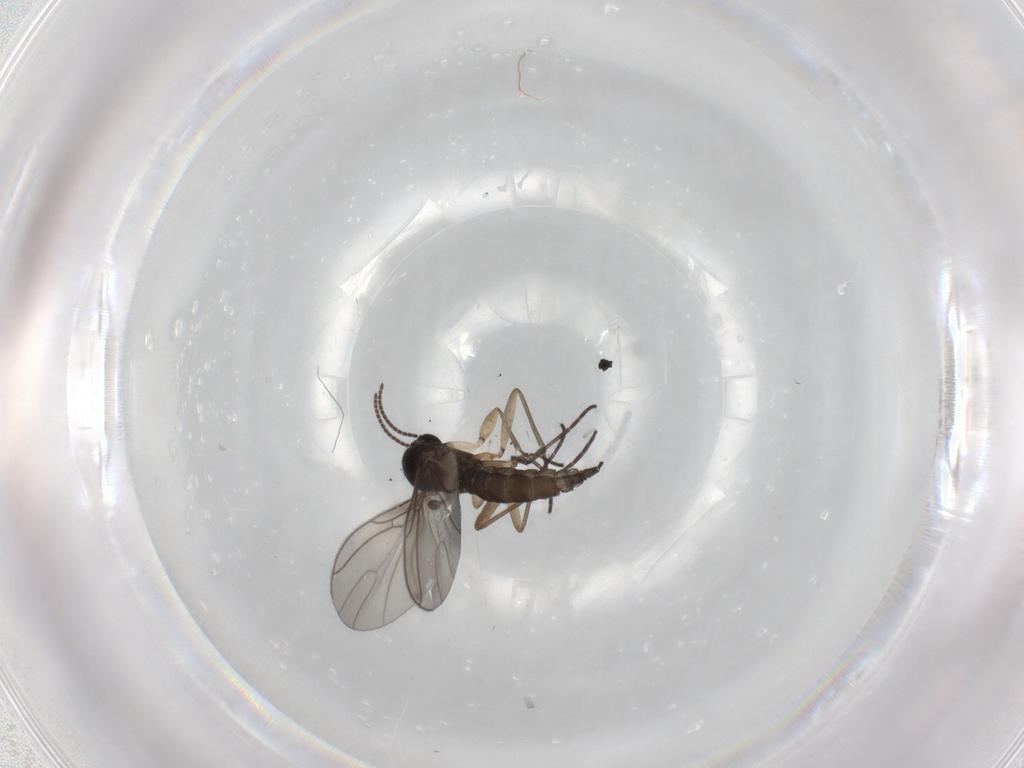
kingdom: Animalia
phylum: Arthropoda
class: Insecta
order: Diptera
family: Sciaridae
